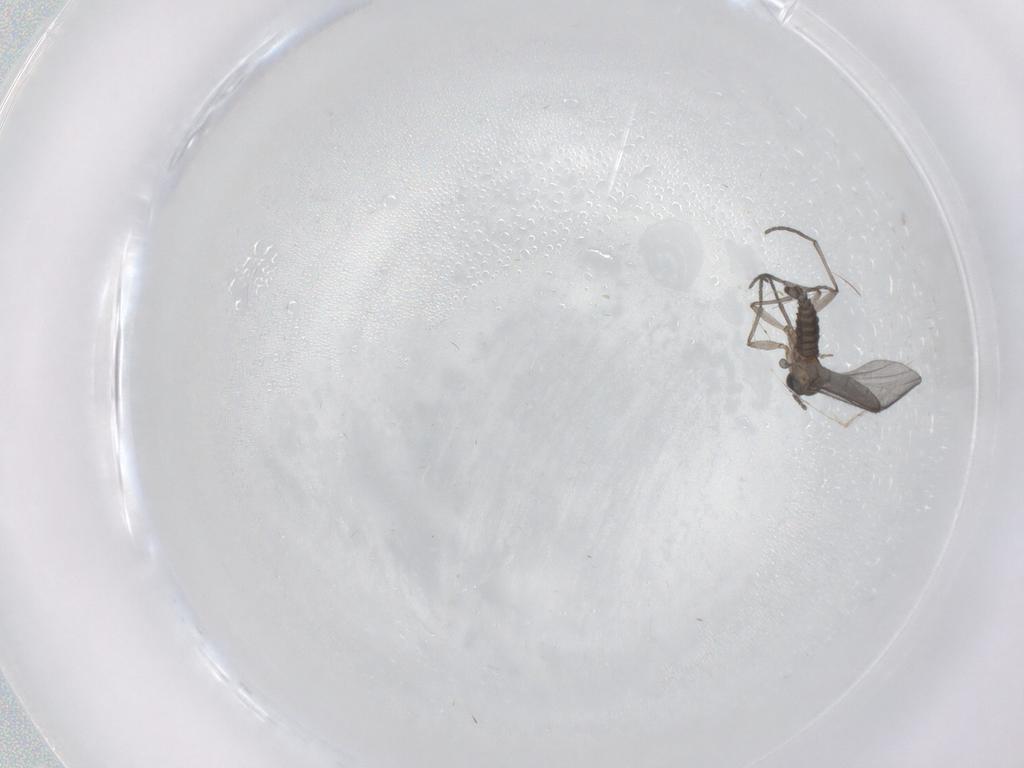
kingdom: Animalia
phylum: Arthropoda
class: Insecta
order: Diptera
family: Sciaridae
